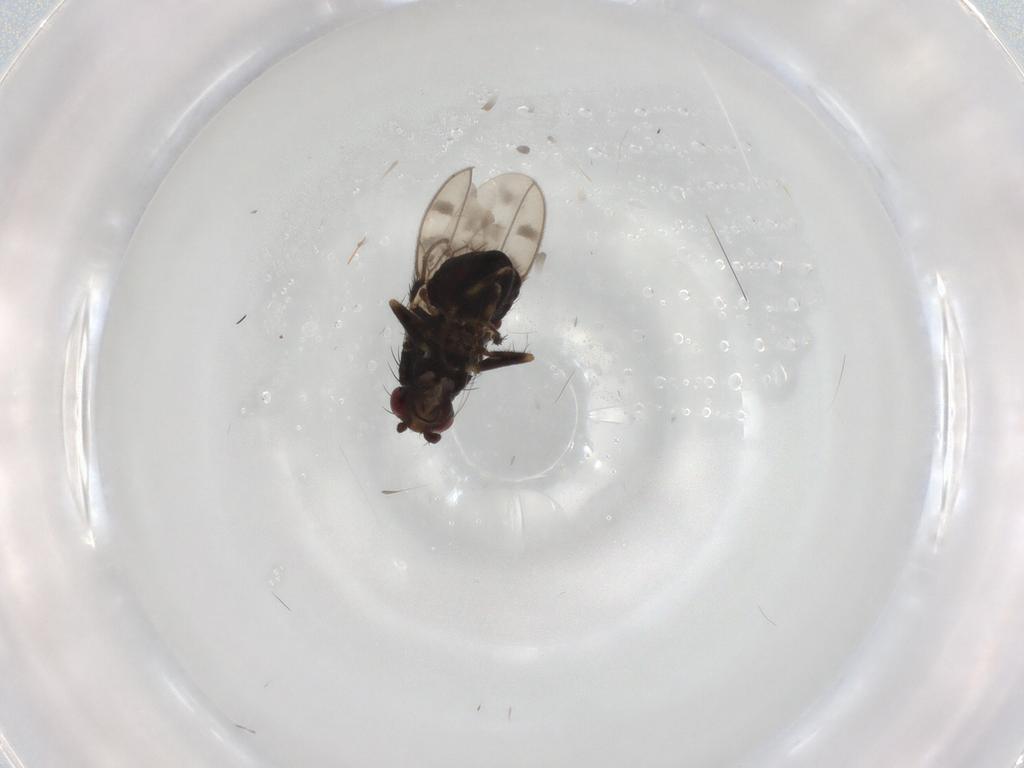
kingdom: Animalia
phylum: Arthropoda
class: Insecta
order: Diptera
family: Sphaeroceridae
